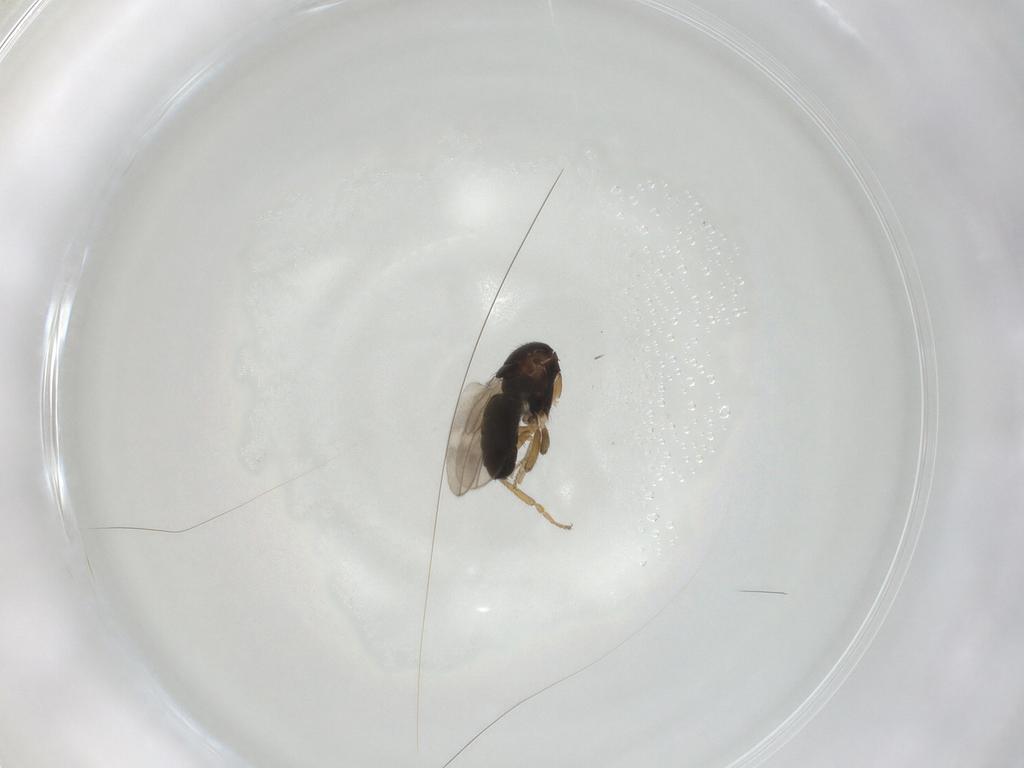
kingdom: Animalia
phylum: Arthropoda
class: Insecta
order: Diptera
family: Sphaeroceridae
